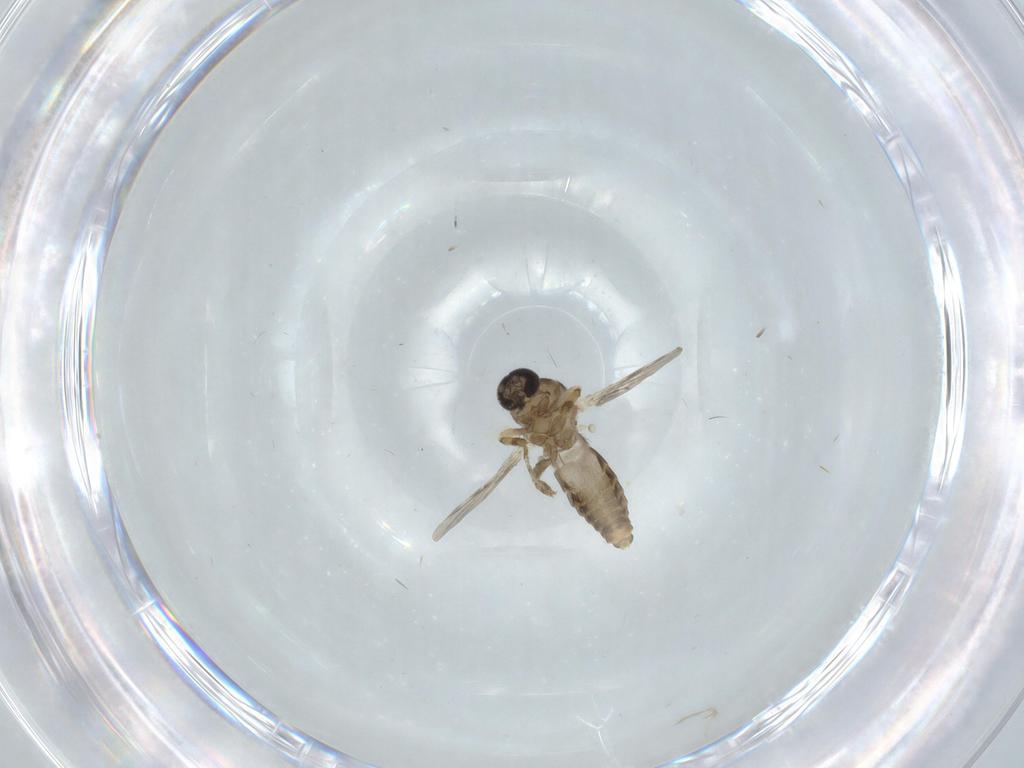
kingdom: Animalia
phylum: Arthropoda
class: Insecta
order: Diptera
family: Ceratopogonidae
